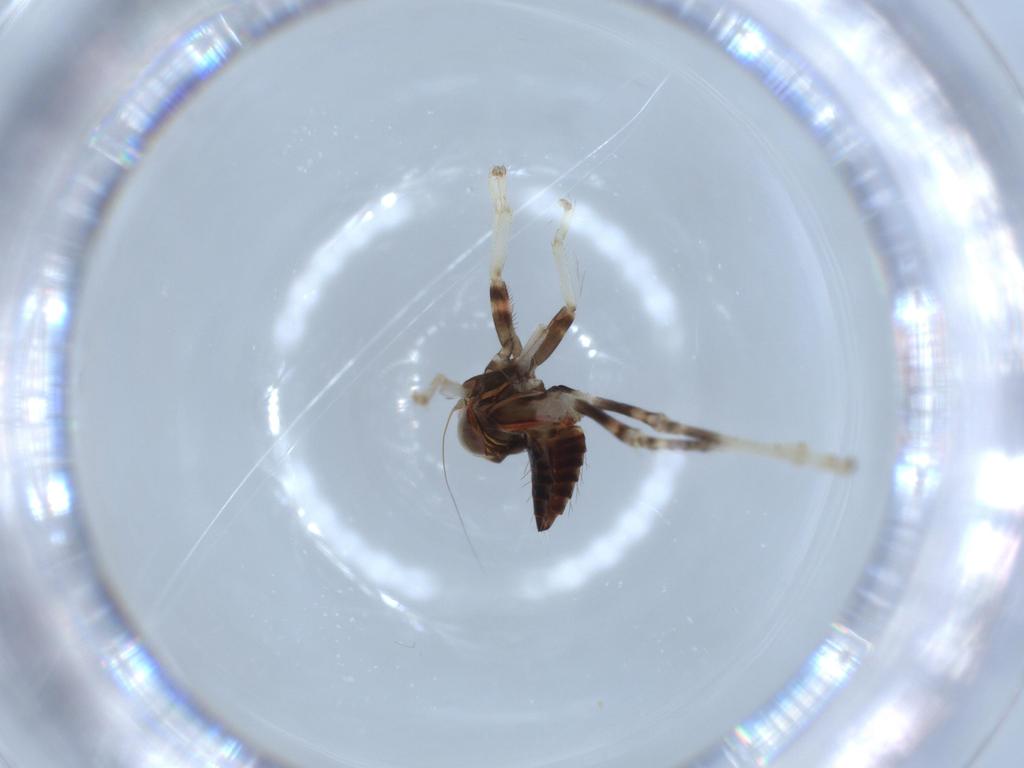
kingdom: Animalia
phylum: Arthropoda
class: Insecta
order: Hemiptera
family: Cicadellidae
